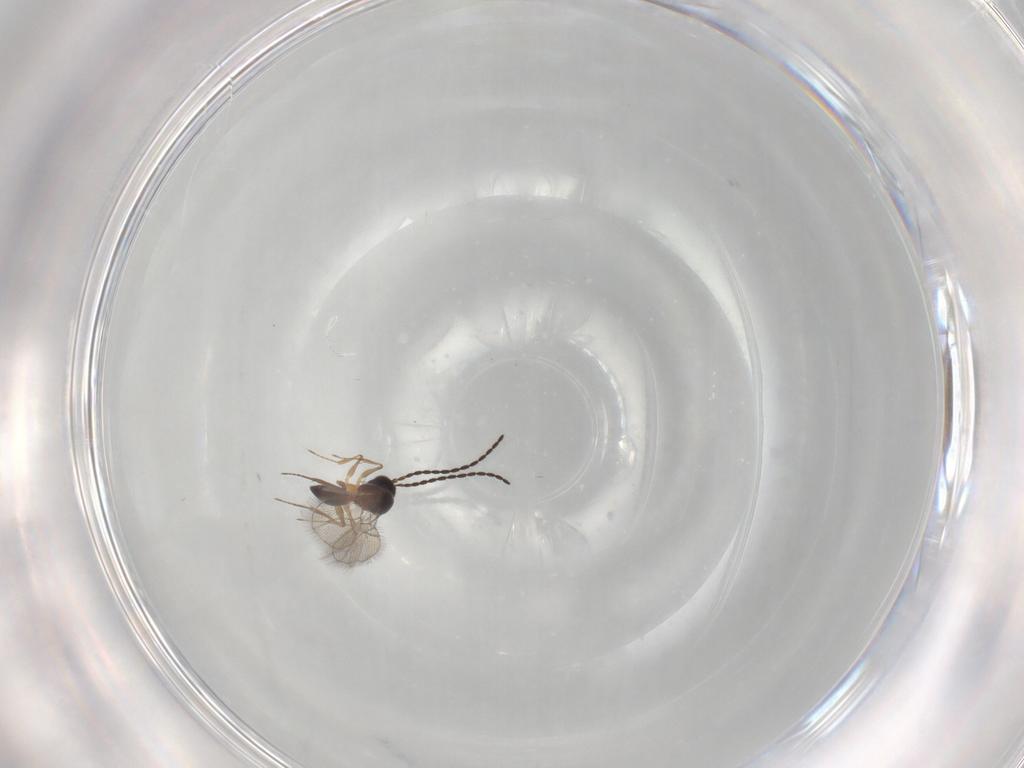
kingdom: Animalia
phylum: Arthropoda
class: Insecta
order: Hymenoptera
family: Figitidae
